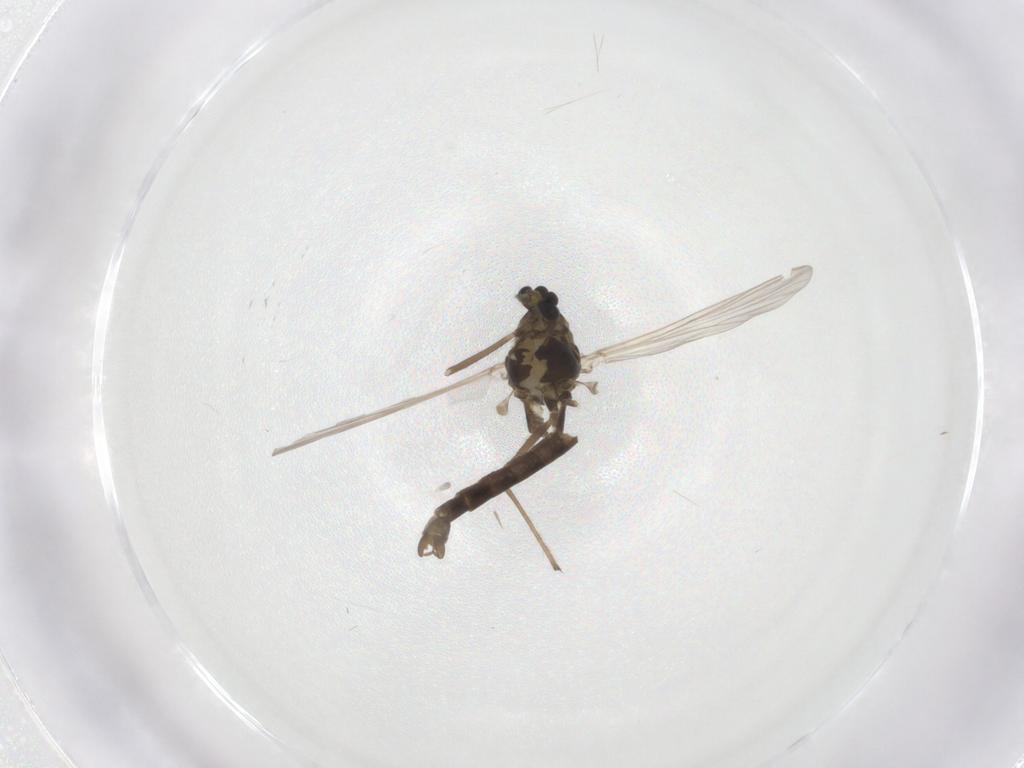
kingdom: Animalia
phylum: Arthropoda
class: Insecta
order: Diptera
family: Chironomidae
